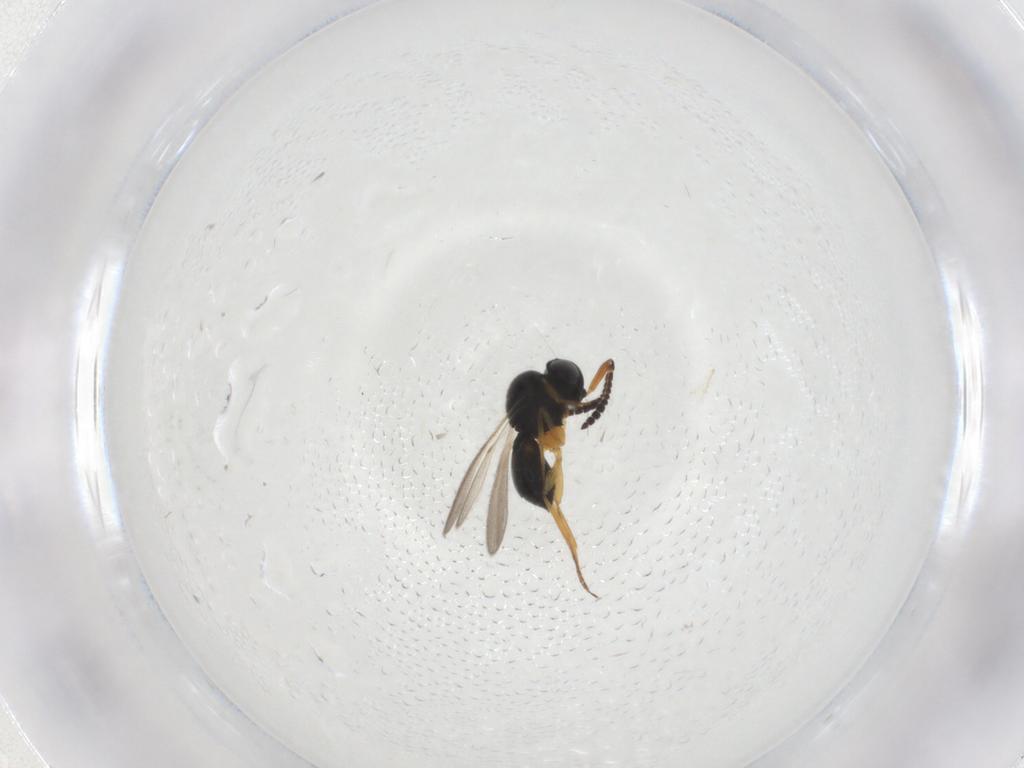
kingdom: Animalia
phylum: Arthropoda
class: Insecta
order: Hymenoptera
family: Scelionidae
